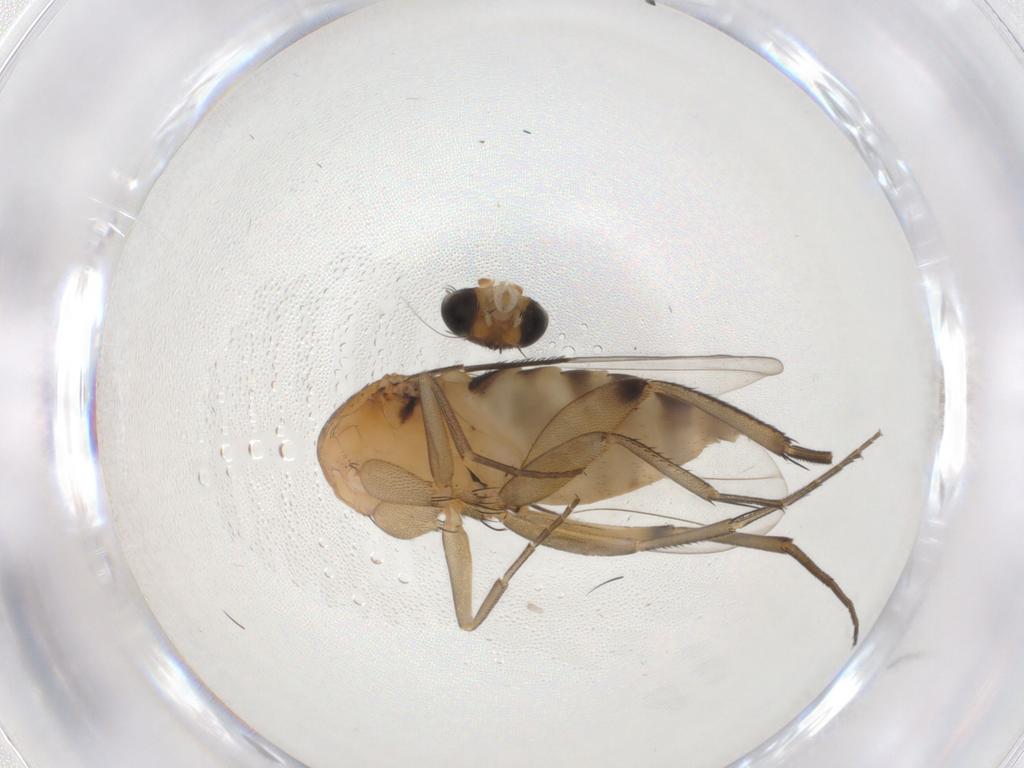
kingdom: Animalia
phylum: Arthropoda
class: Insecta
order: Diptera
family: Phoridae
